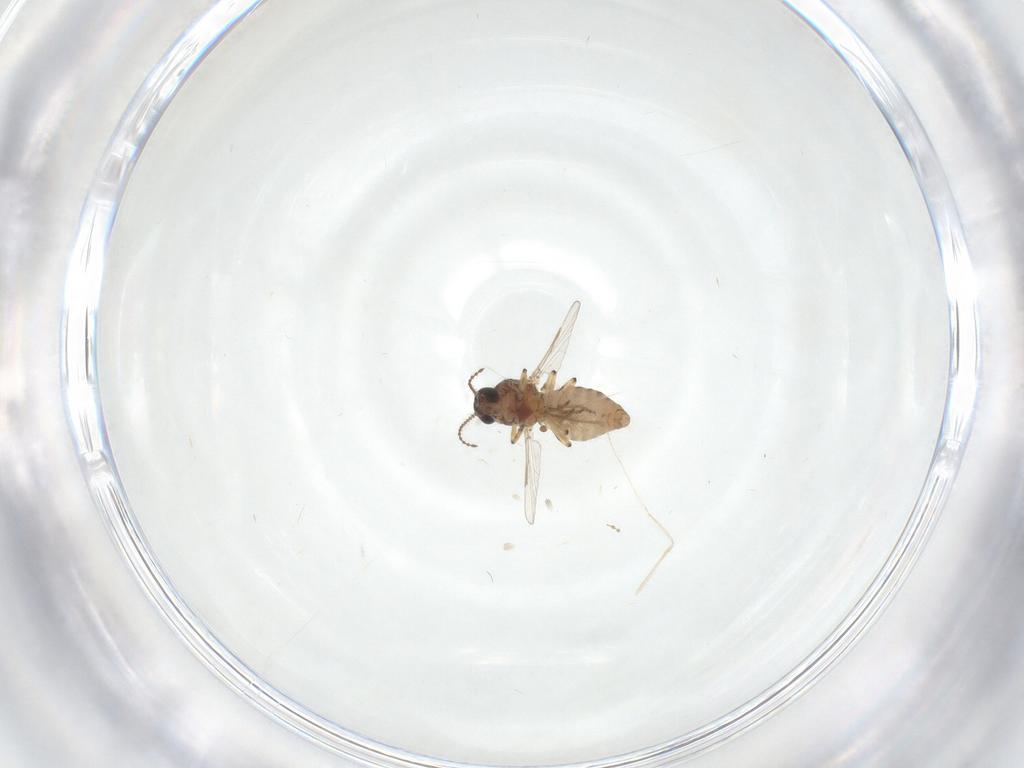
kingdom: Animalia
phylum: Arthropoda
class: Insecta
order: Diptera
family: Ceratopogonidae
